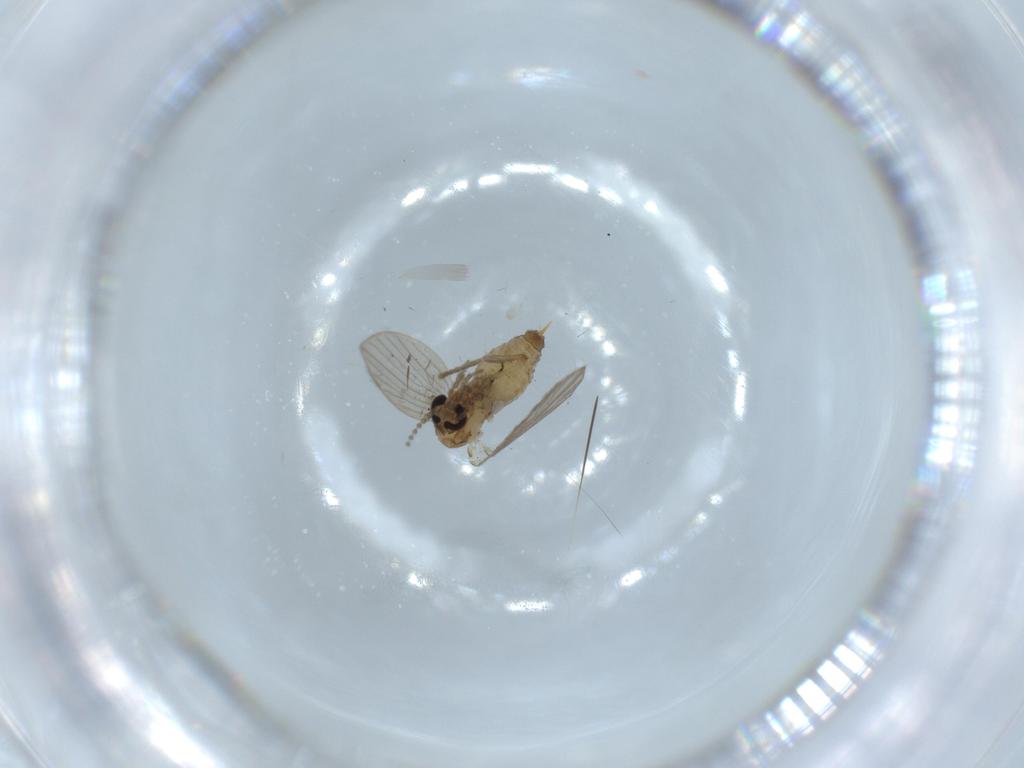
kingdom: Animalia
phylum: Arthropoda
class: Insecta
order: Diptera
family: Psychodidae
